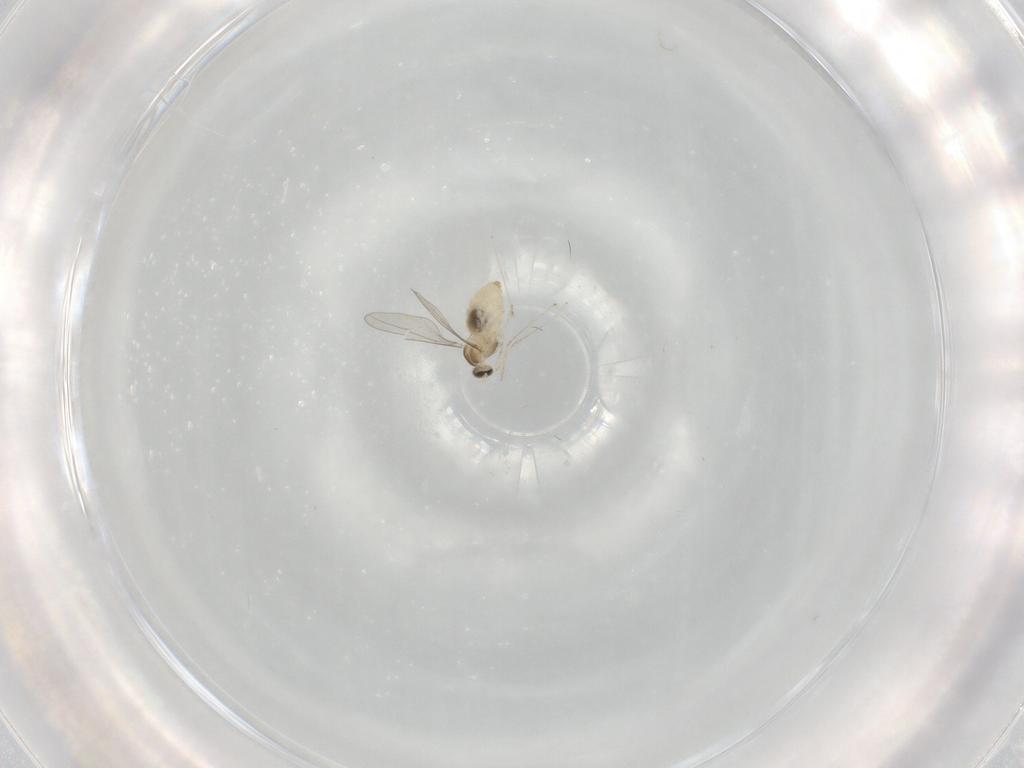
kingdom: Animalia
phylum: Arthropoda
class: Insecta
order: Diptera
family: Cecidomyiidae
